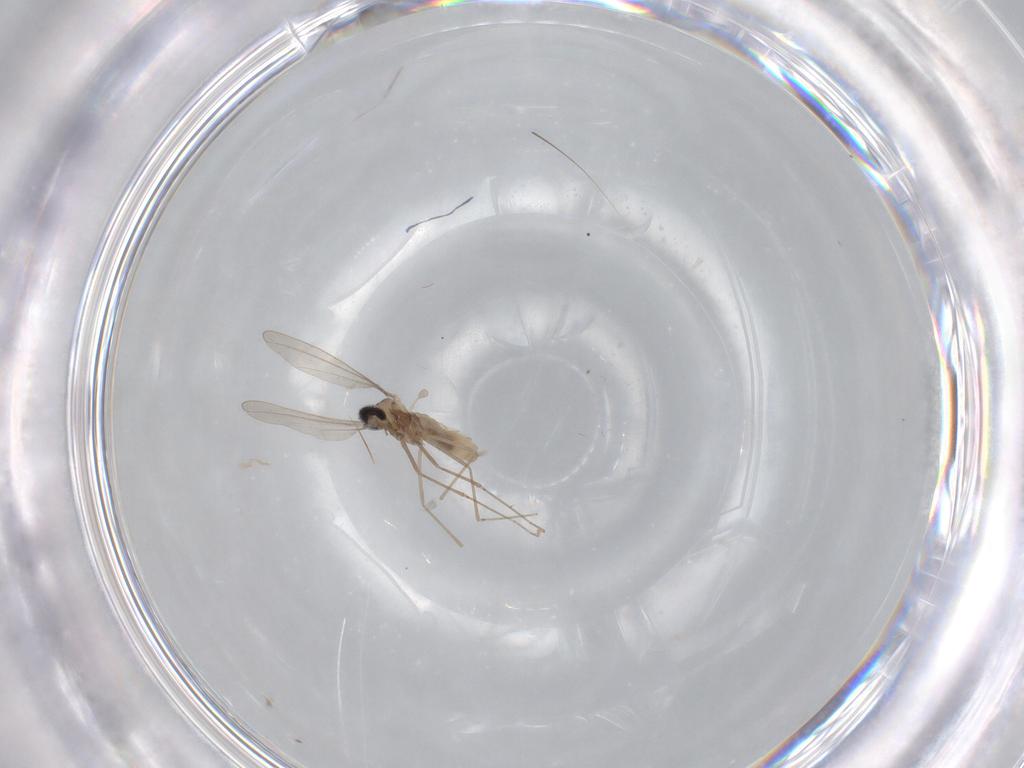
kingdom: Animalia
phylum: Arthropoda
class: Insecta
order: Diptera
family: Cecidomyiidae
